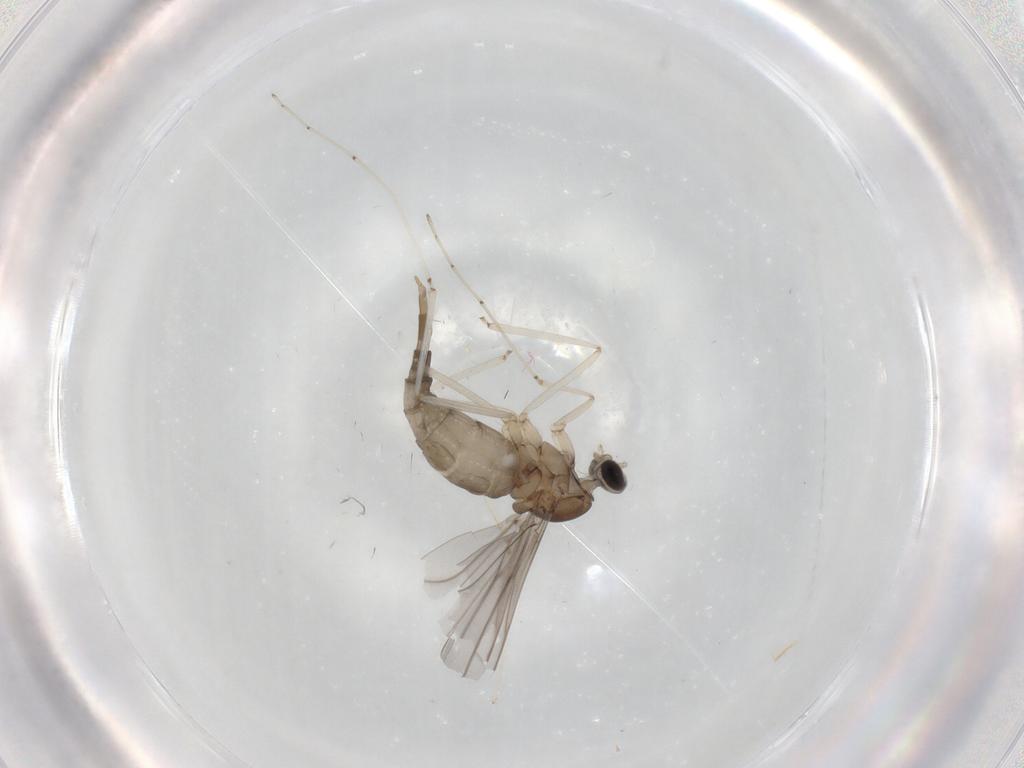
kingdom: Animalia
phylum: Arthropoda
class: Insecta
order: Diptera
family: Cecidomyiidae
